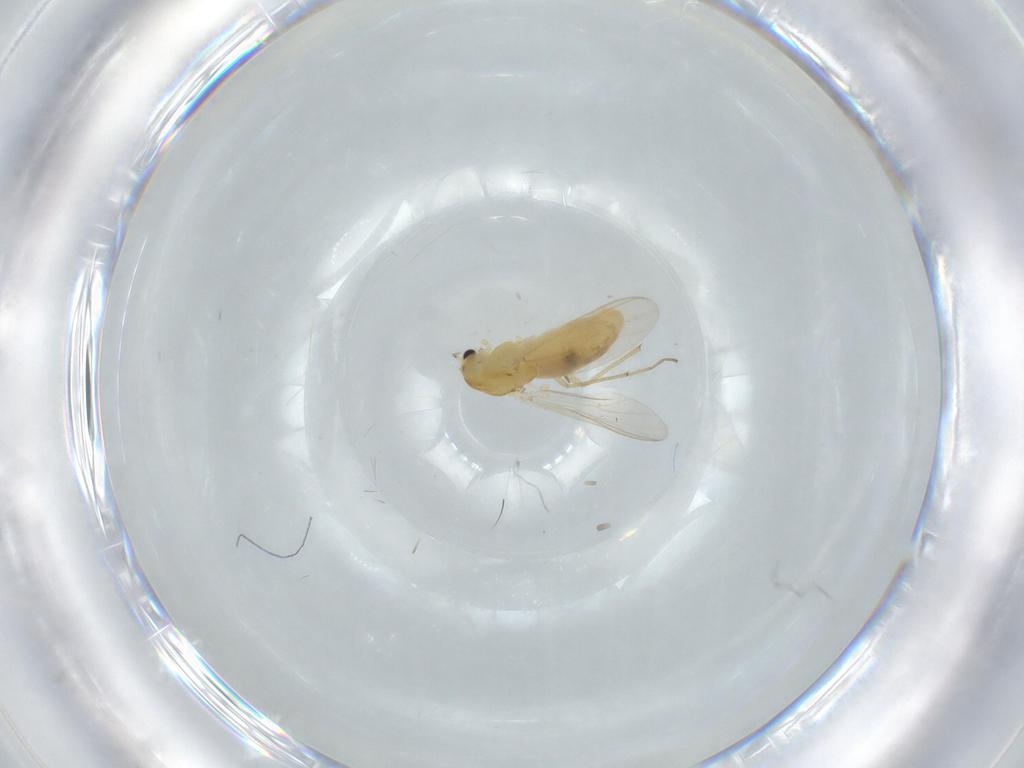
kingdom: Animalia
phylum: Arthropoda
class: Insecta
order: Diptera
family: Chironomidae
